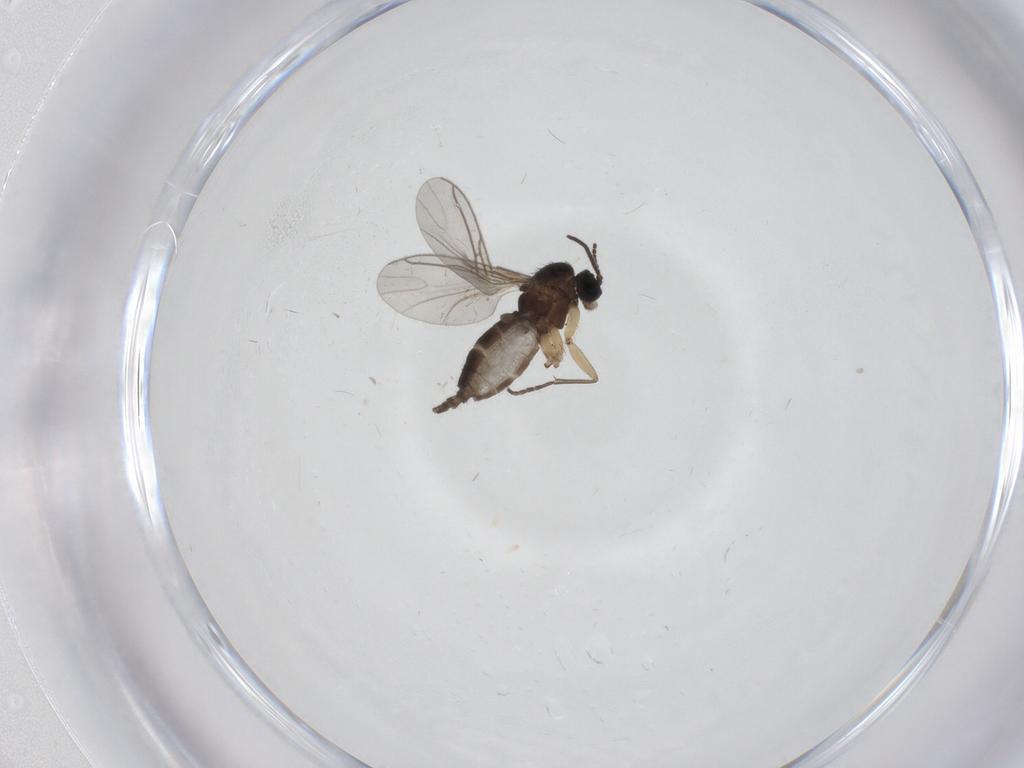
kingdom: Animalia
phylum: Arthropoda
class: Insecta
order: Diptera
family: Sciaridae
